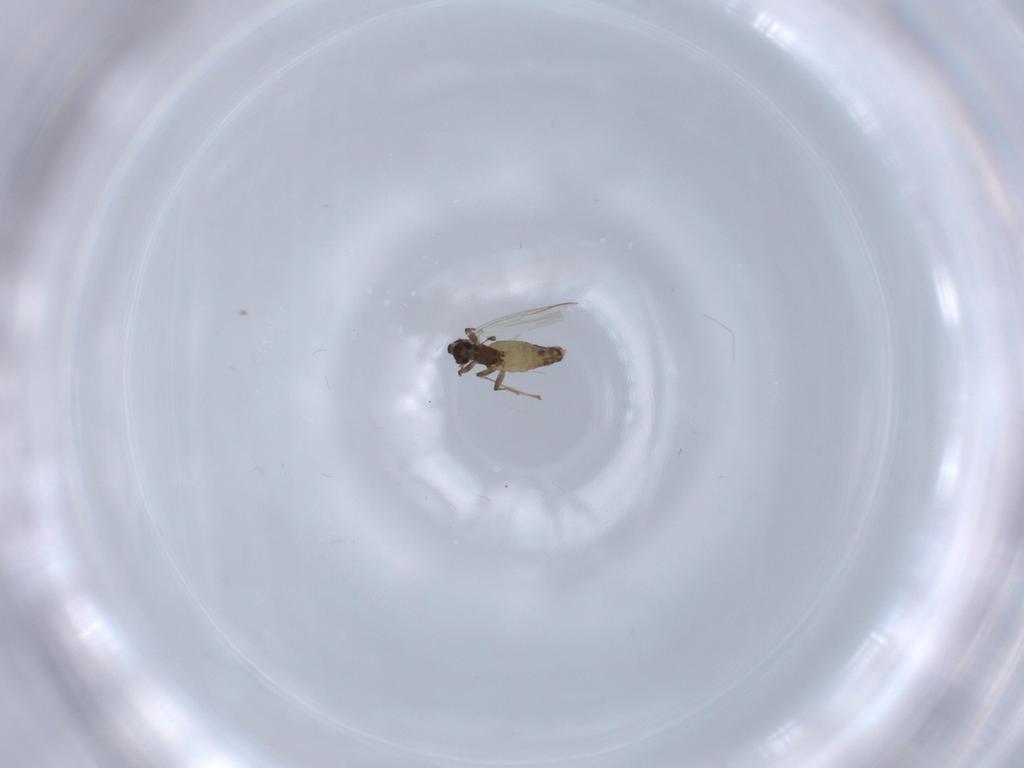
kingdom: Animalia
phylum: Arthropoda
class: Insecta
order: Diptera
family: Chironomidae
